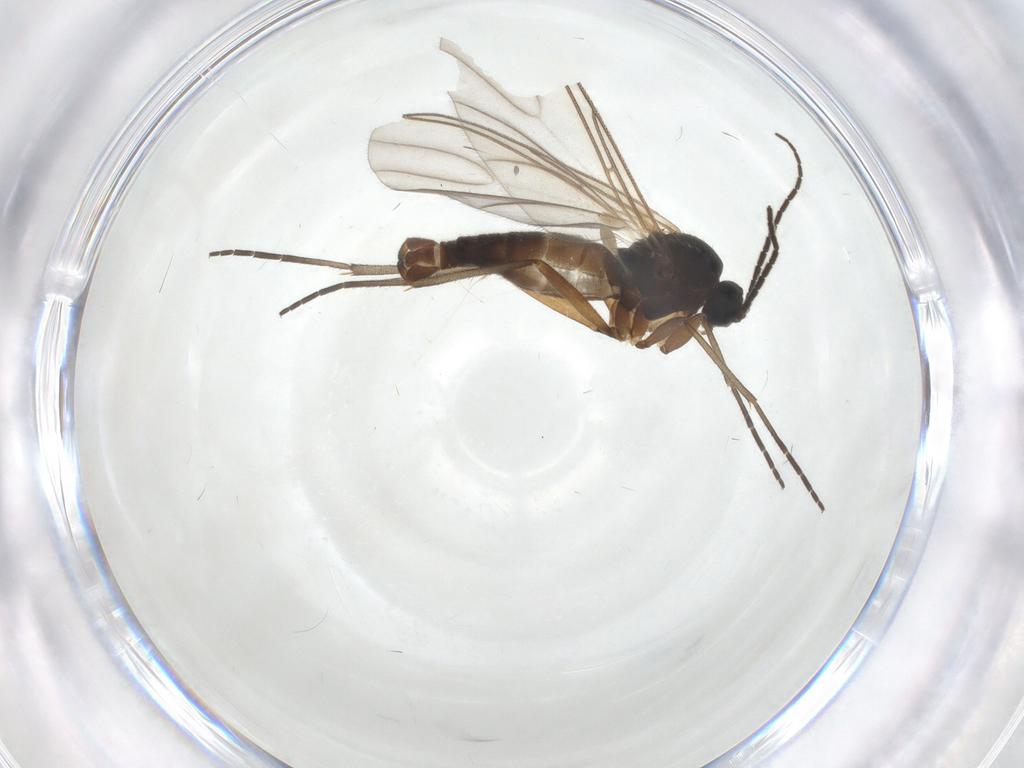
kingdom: Animalia
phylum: Arthropoda
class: Insecta
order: Diptera
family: Sciaridae
